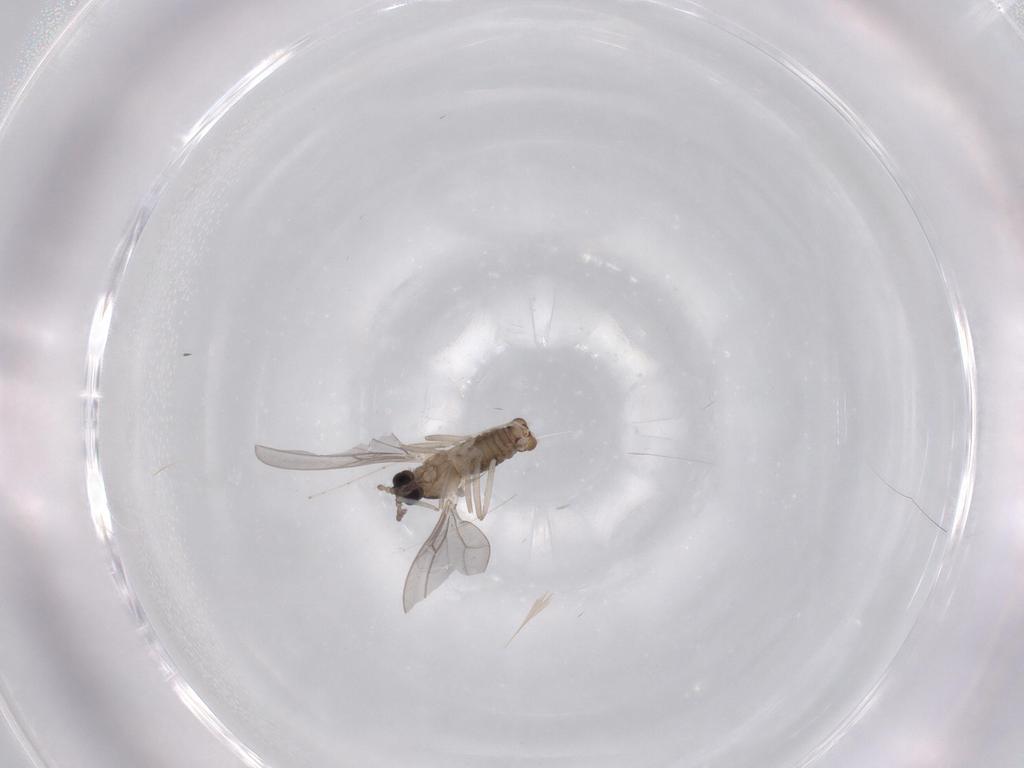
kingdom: Animalia
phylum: Arthropoda
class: Insecta
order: Diptera
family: Cecidomyiidae
